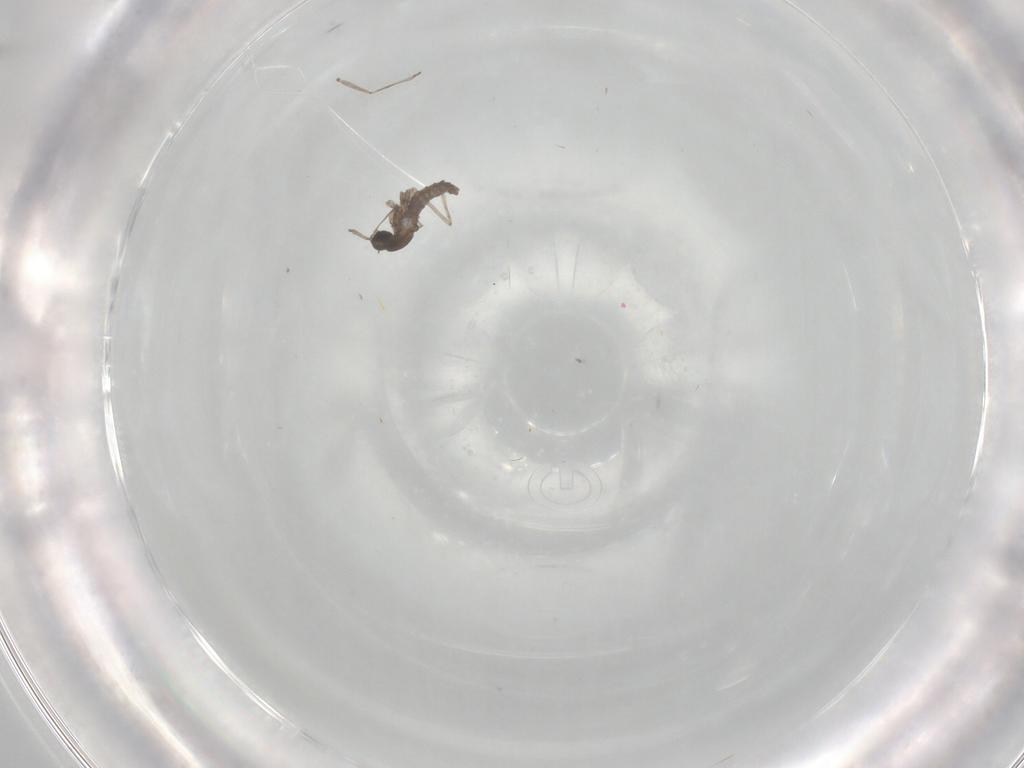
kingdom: Animalia
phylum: Arthropoda
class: Insecta
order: Diptera
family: Cecidomyiidae
